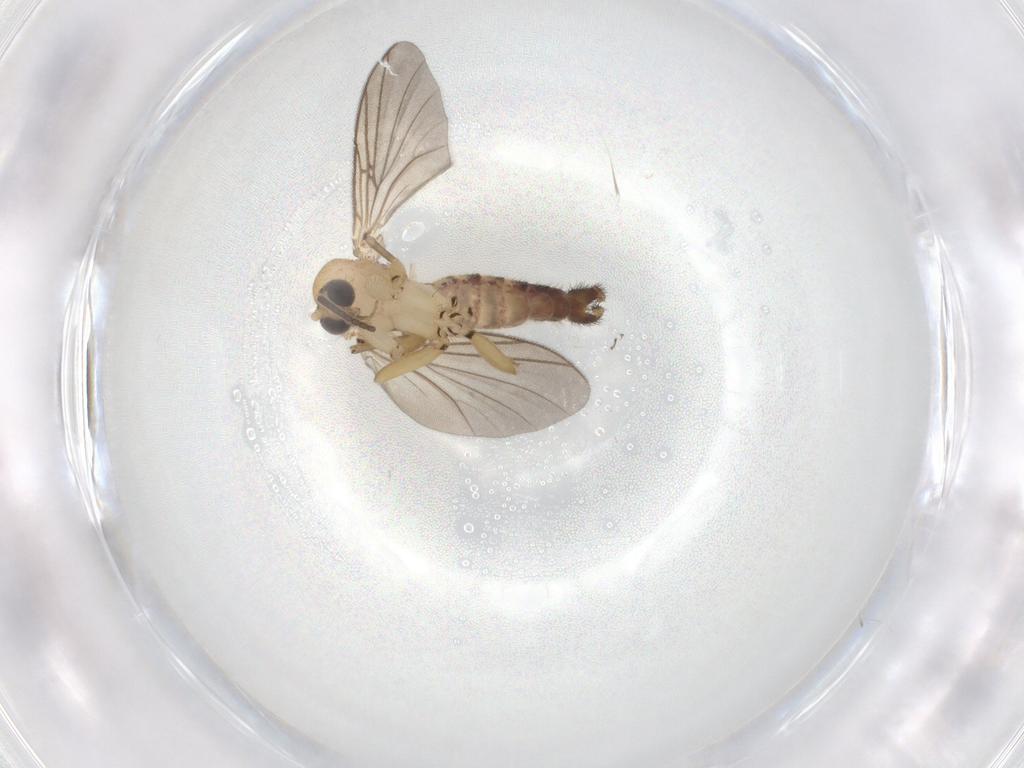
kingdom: Animalia
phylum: Arthropoda
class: Insecta
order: Diptera
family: Mycetophilidae
